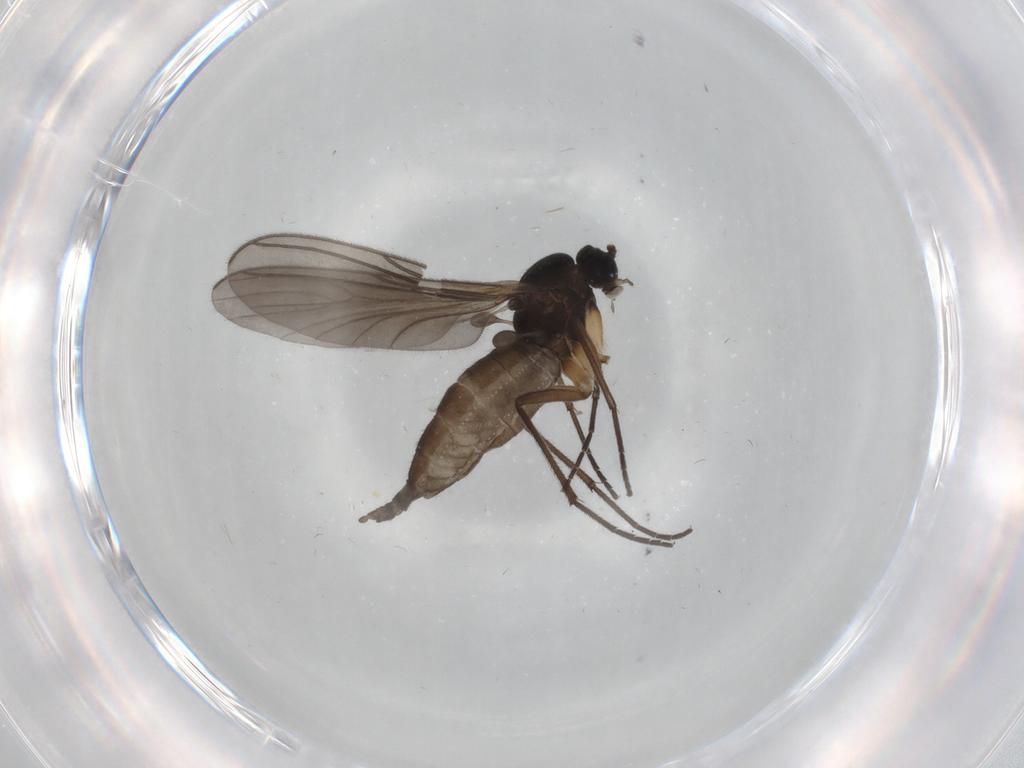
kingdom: Animalia
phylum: Arthropoda
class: Insecta
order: Diptera
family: Sciaridae
